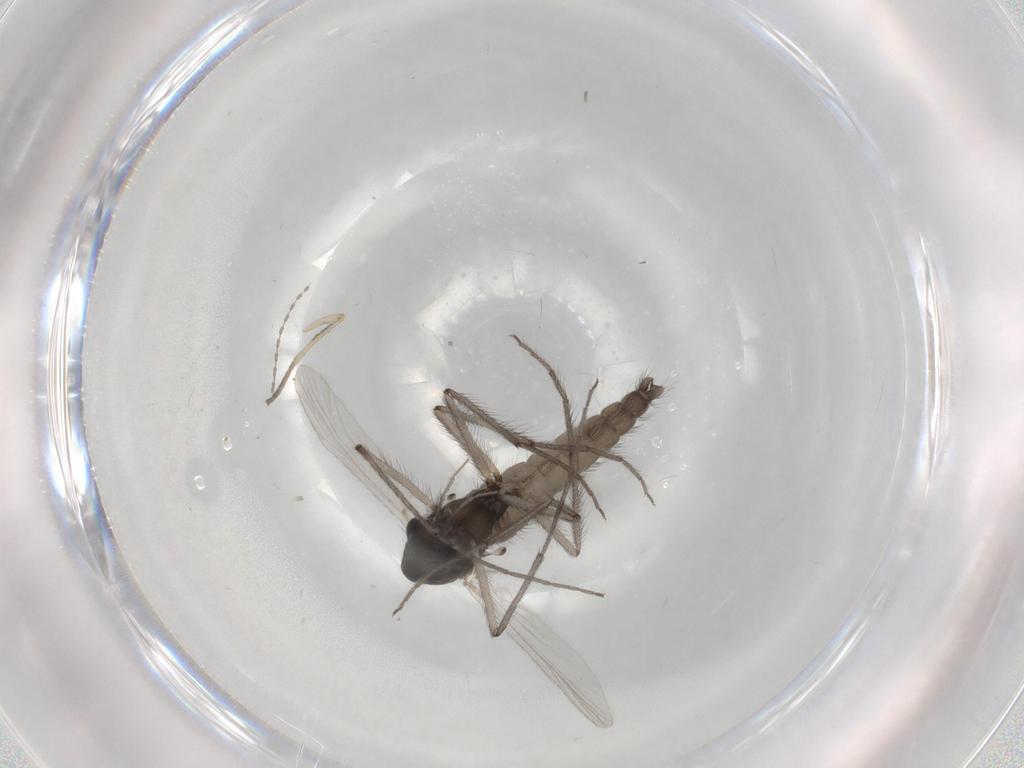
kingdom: Animalia
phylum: Arthropoda
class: Insecta
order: Diptera
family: Chironomidae
